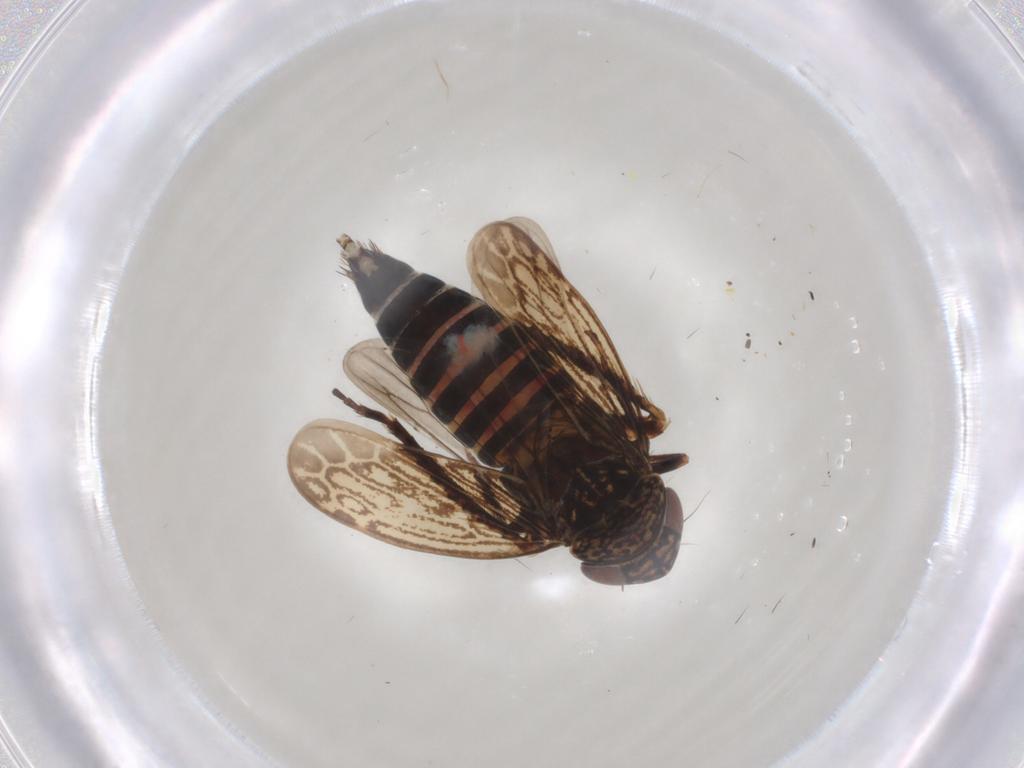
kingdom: Animalia
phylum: Arthropoda
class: Insecta
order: Hemiptera
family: Cicadellidae
